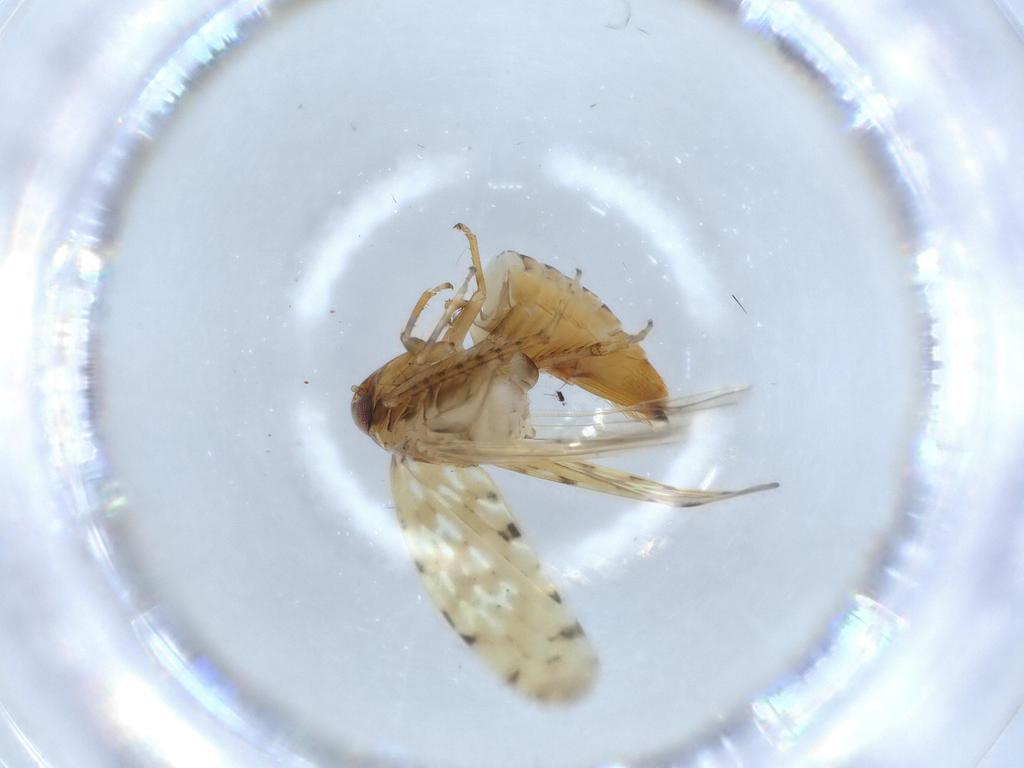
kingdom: Animalia
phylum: Arthropoda
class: Insecta
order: Hemiptera
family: Cicadellidae
